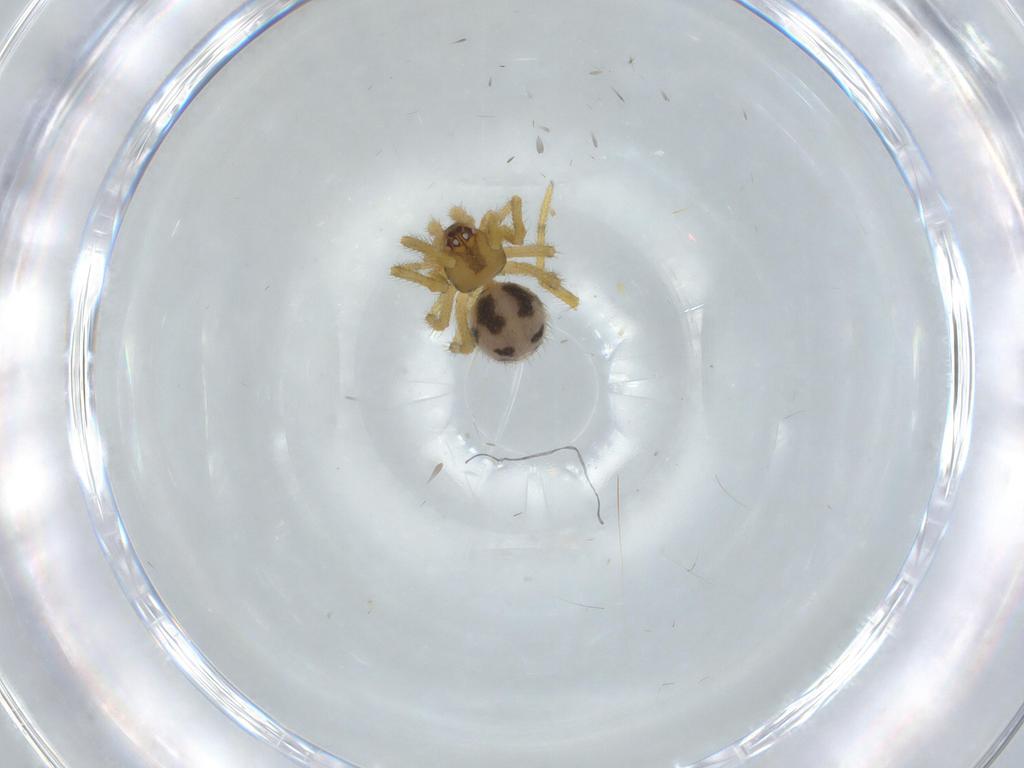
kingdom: Animalia
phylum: Arthropoda
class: Arachnida
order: Araneae
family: Theridiidae
